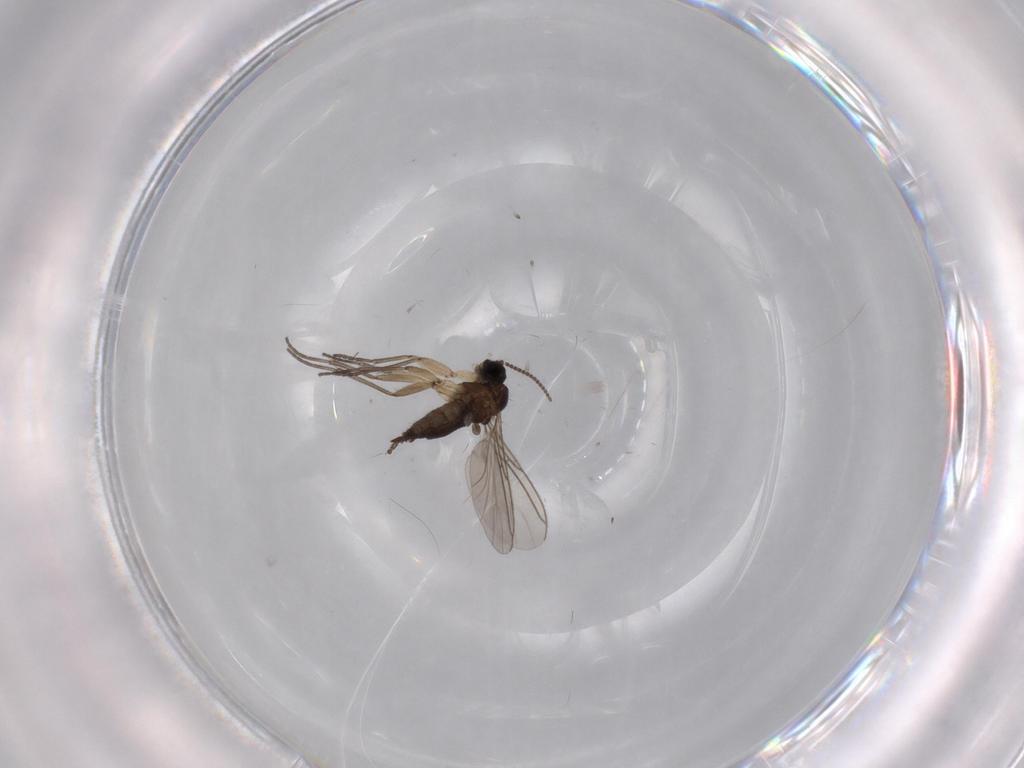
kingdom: Animalia
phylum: Arthropoda
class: Insecta
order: Diptera
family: Sciaridae
